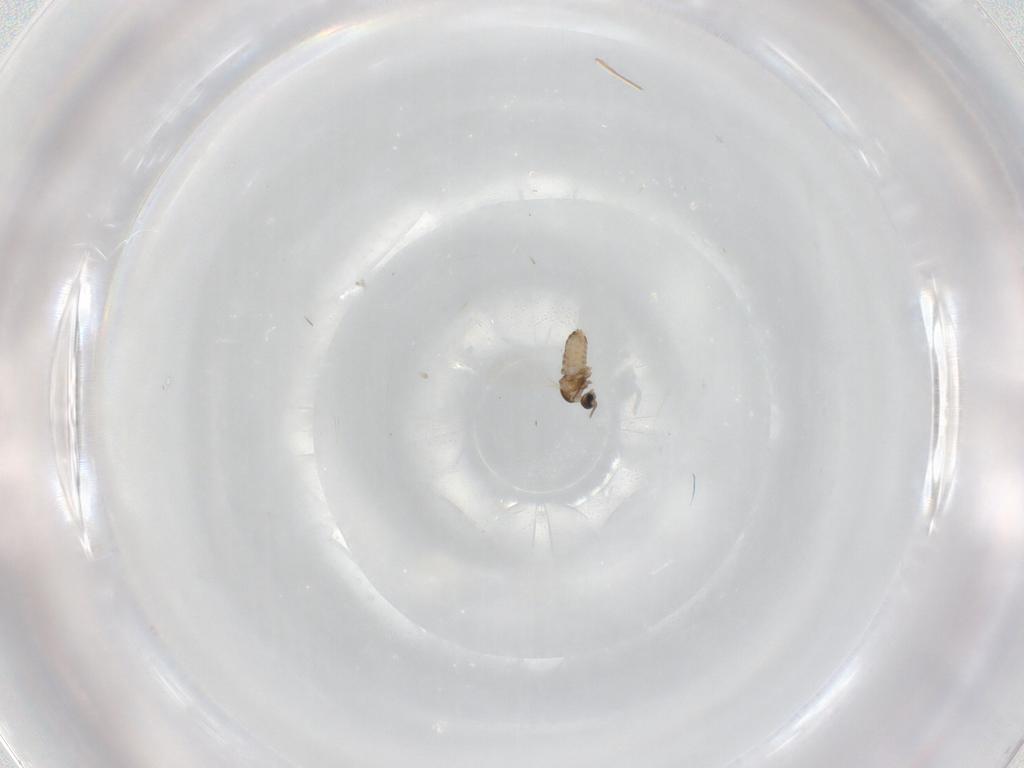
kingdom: Animalia
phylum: Arthropoda
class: Insecta
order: Diptera
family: Cecidomyiidae
